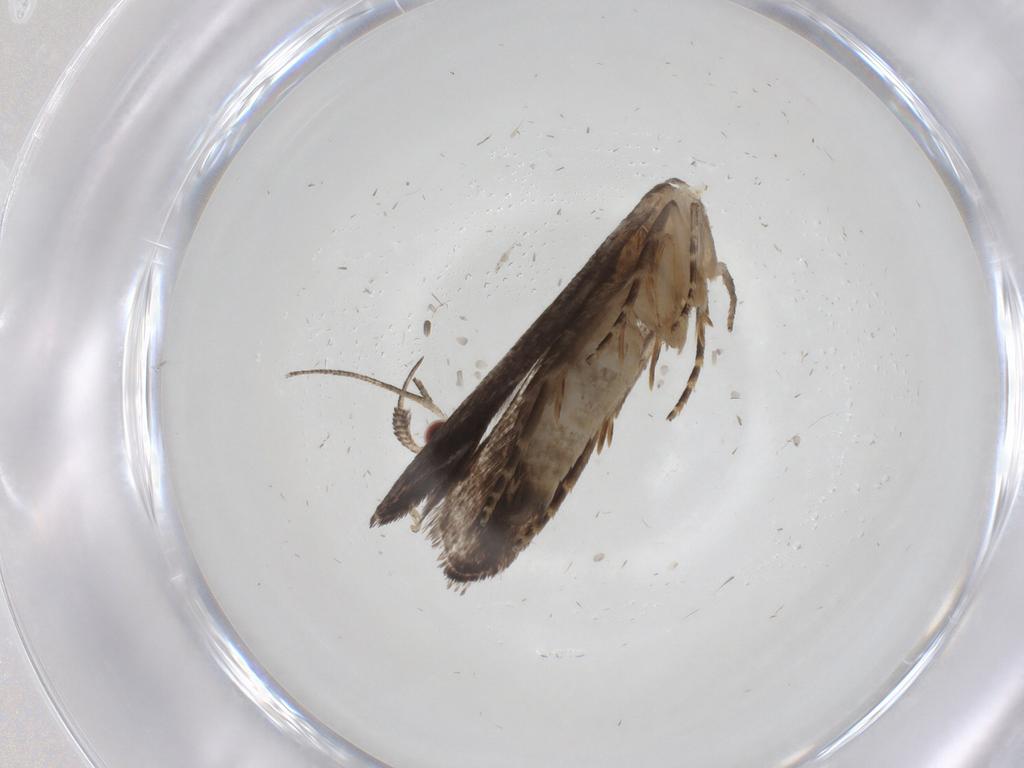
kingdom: Animalia
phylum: Arthropoda
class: Insecta
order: Lepidoptera
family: Gelechiidae
